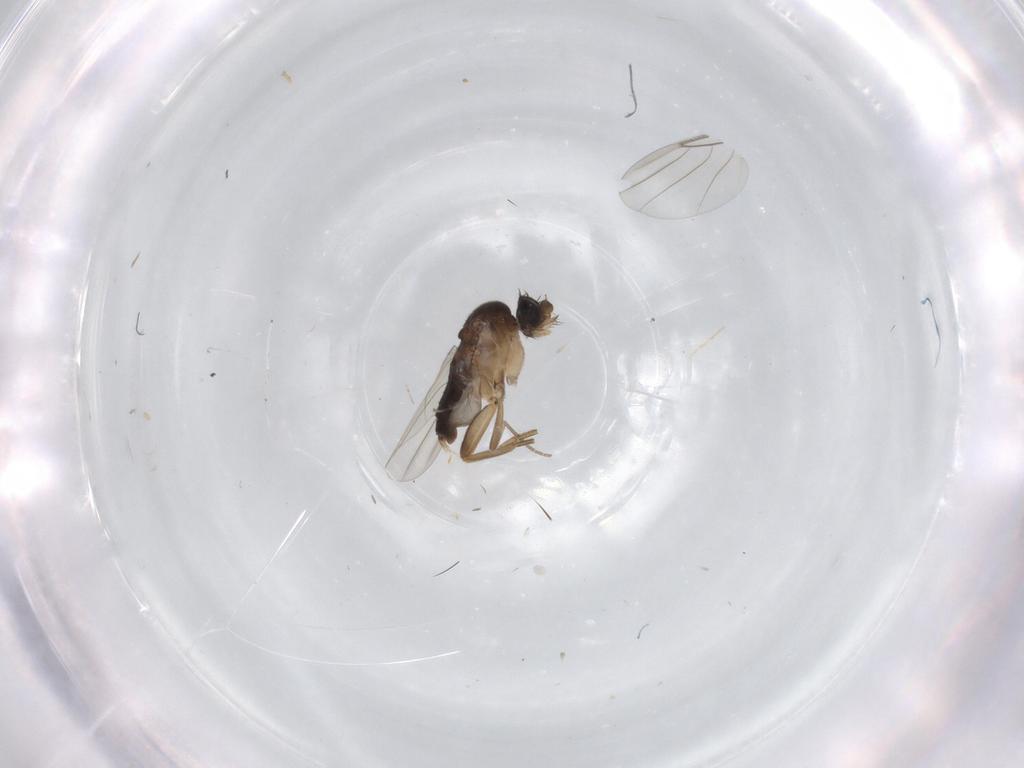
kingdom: Animalia
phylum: Arthropoda
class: Insecta
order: Diptera
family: Phoridae
